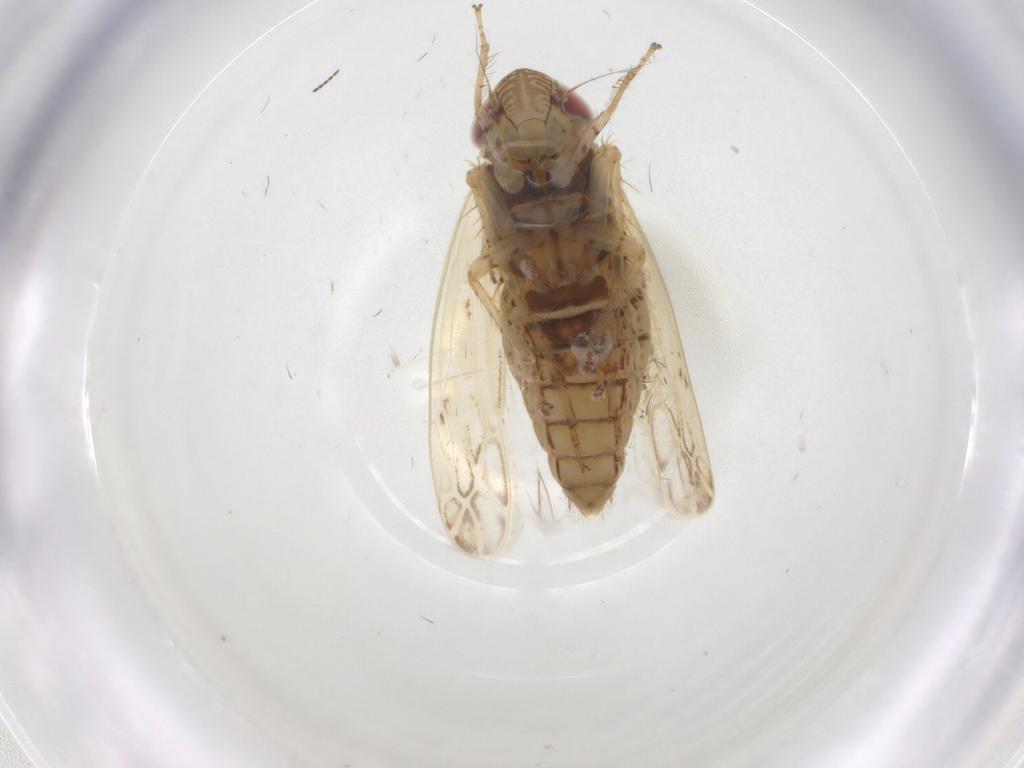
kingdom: Animalia
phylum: Arthropoda
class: Insecta
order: Hemiptera
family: Cicadellidae
